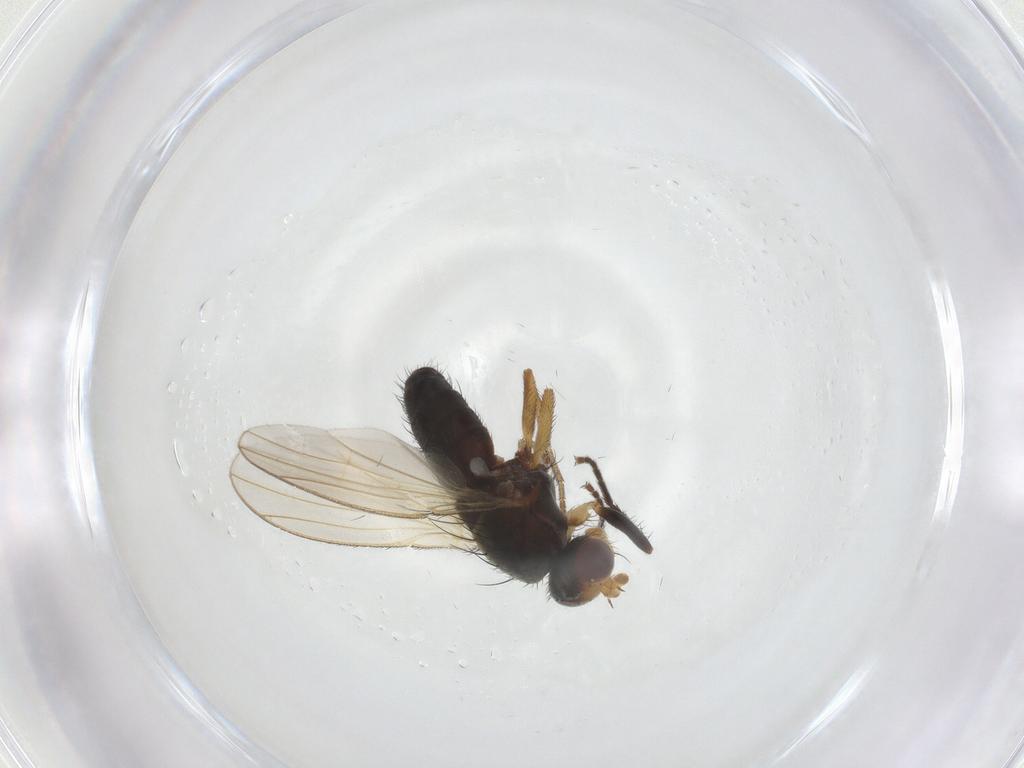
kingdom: Animalia
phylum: Arthropoda
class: Insecta
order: Diptera
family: Heleomyzidae
